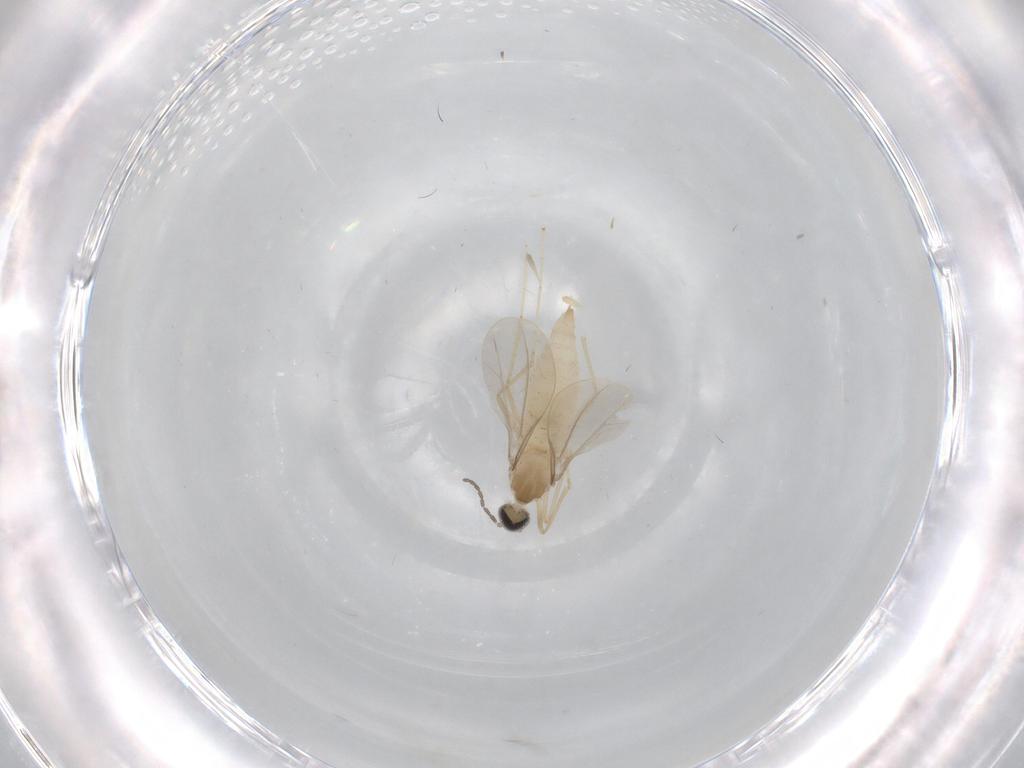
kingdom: Animalia
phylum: Arthropoda
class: Insecta
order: Diptera
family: Cecidomyiidae
